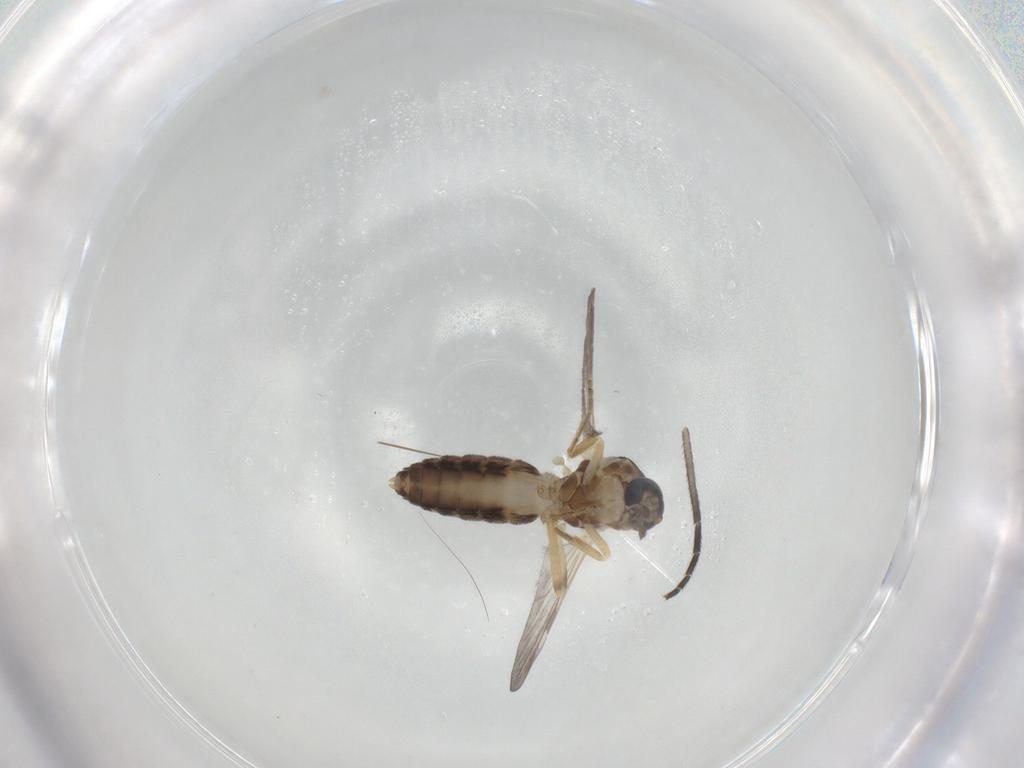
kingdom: Animalia
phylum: Arthropoda
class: Insecta
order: Diptera
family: Ceratopogonidae
